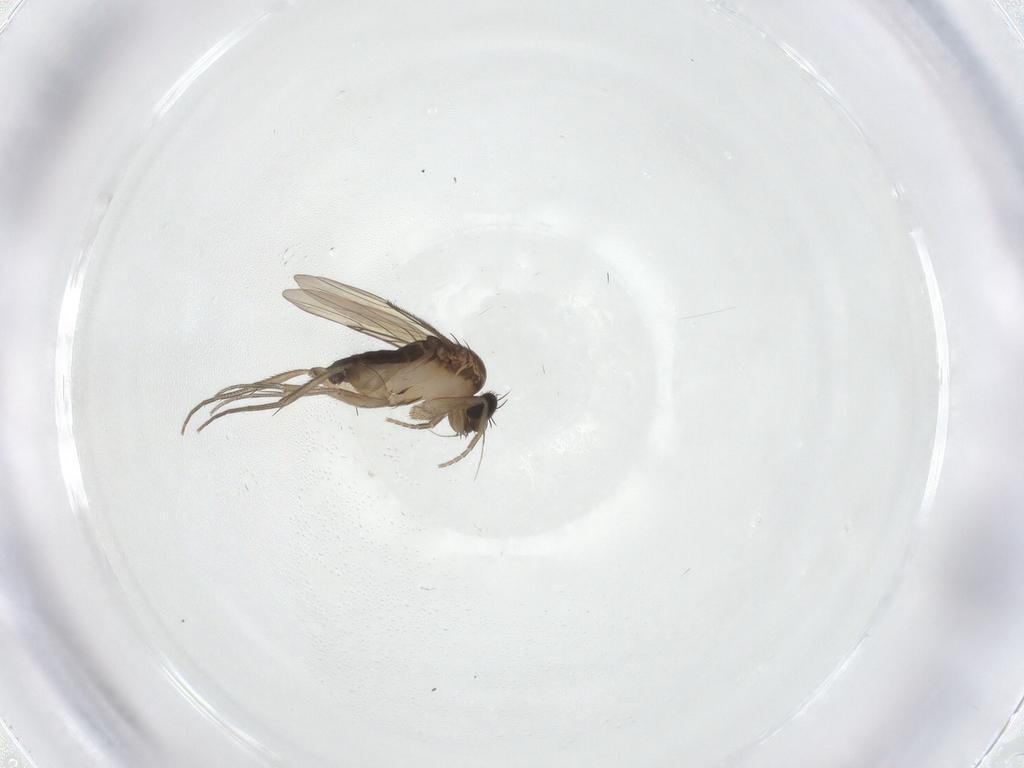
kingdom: Animalia
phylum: Arthropoda
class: Insecta
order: Diptera
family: Phoridae
